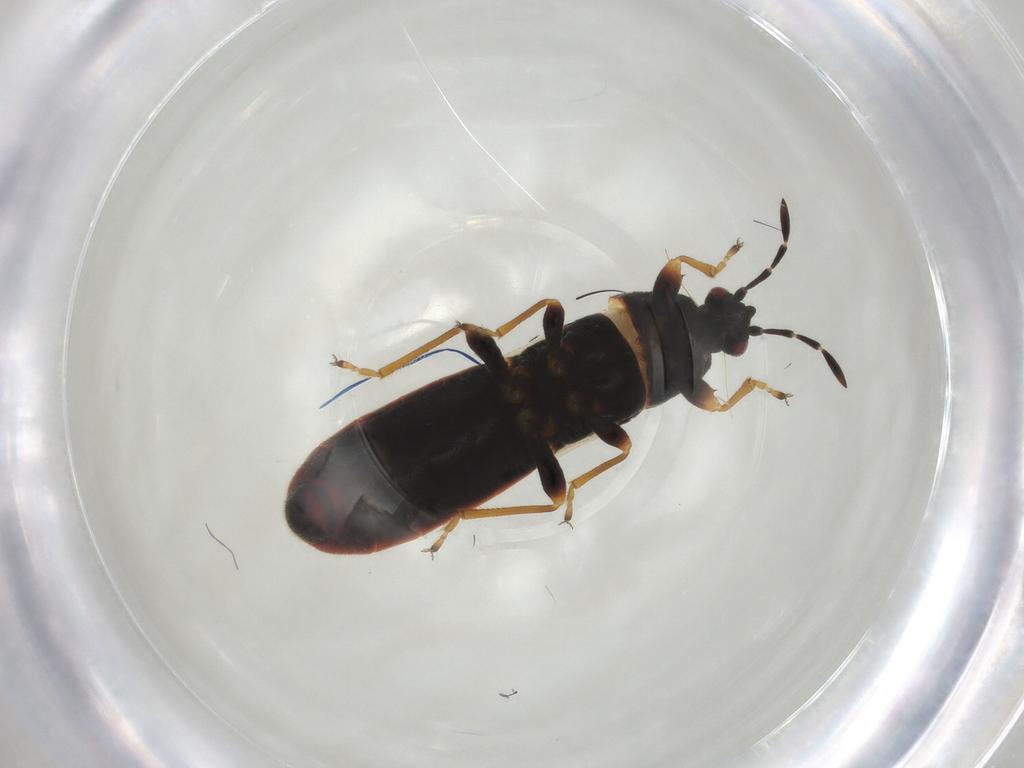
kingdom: Animalia
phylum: Arthropoda
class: Insecta
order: Hemiptera
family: Blissidae
